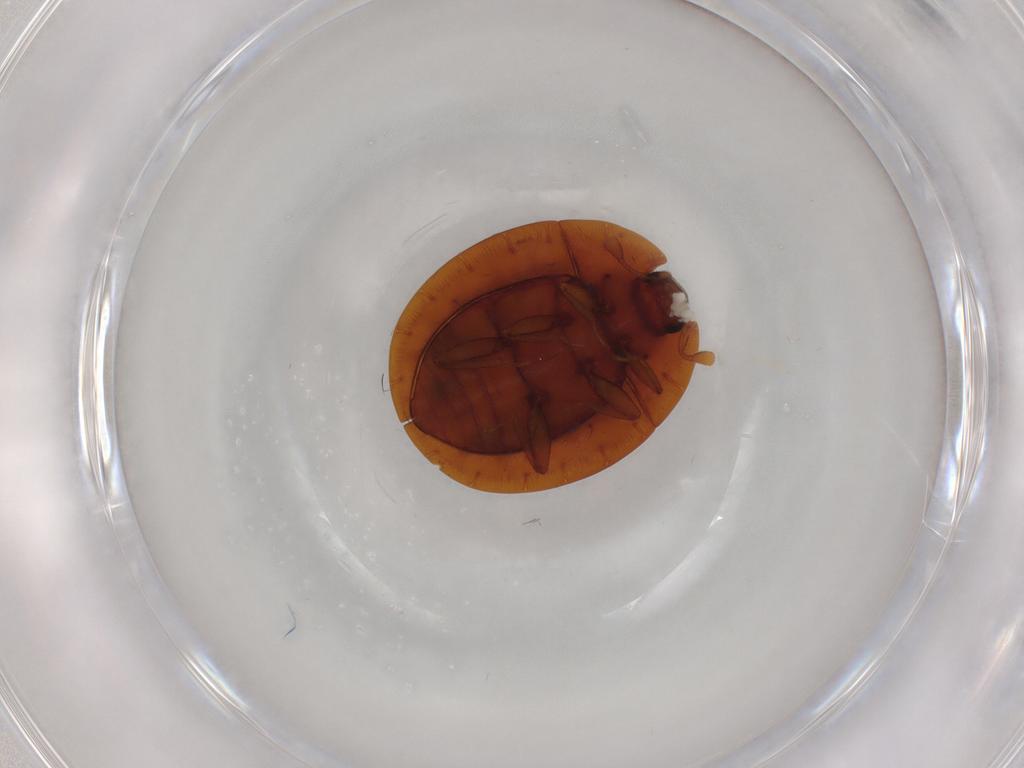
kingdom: Animalia
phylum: Arthropoda
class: Insecta
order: Coleoptera
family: Discolomatidae
